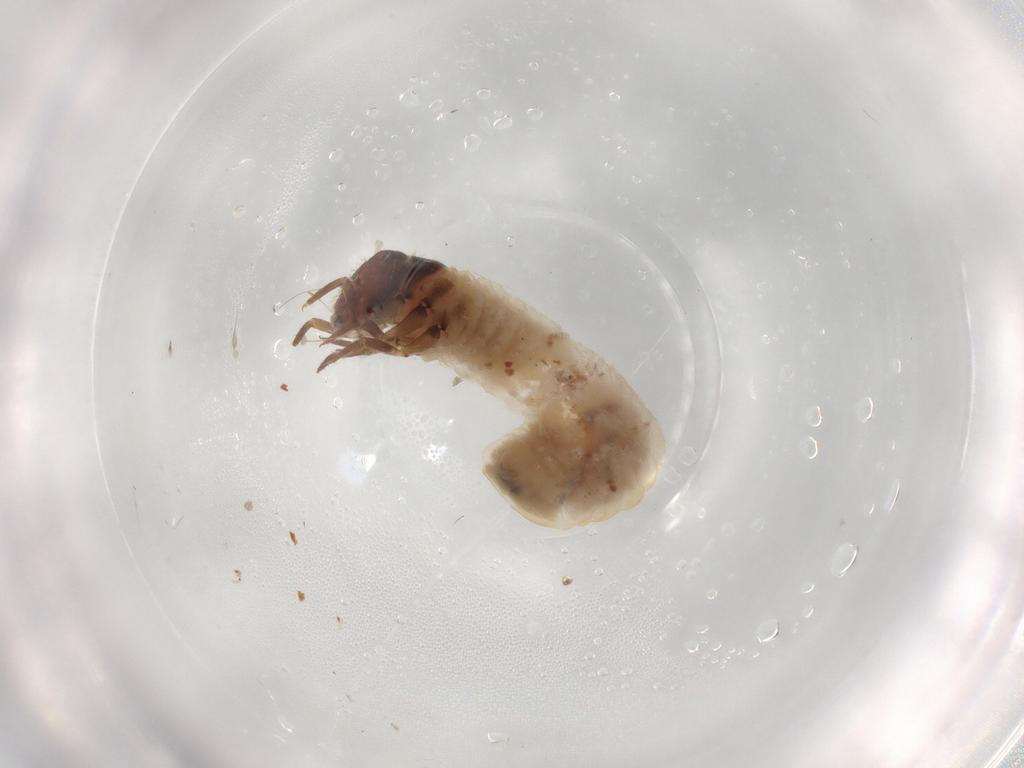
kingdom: Animalia
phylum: Arthropoda
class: Insecta
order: Coleoptera
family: Chrysomelidae
